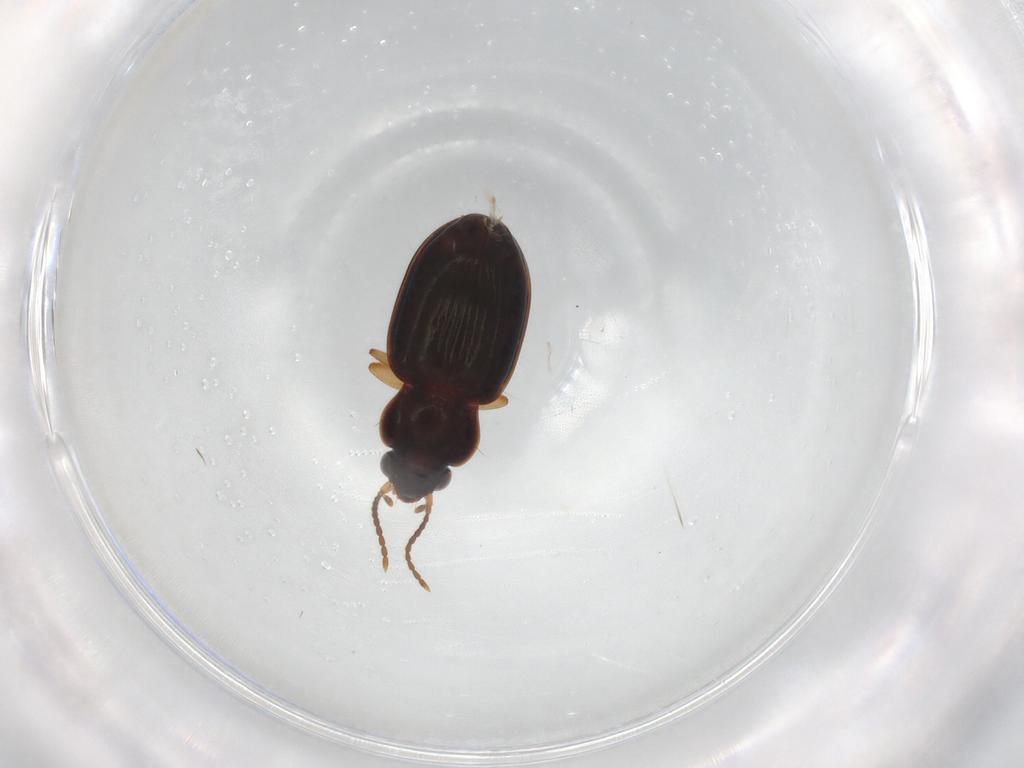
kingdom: Animalia
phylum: Arthropoda
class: Insecta
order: Coleoptera
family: Carabidae
